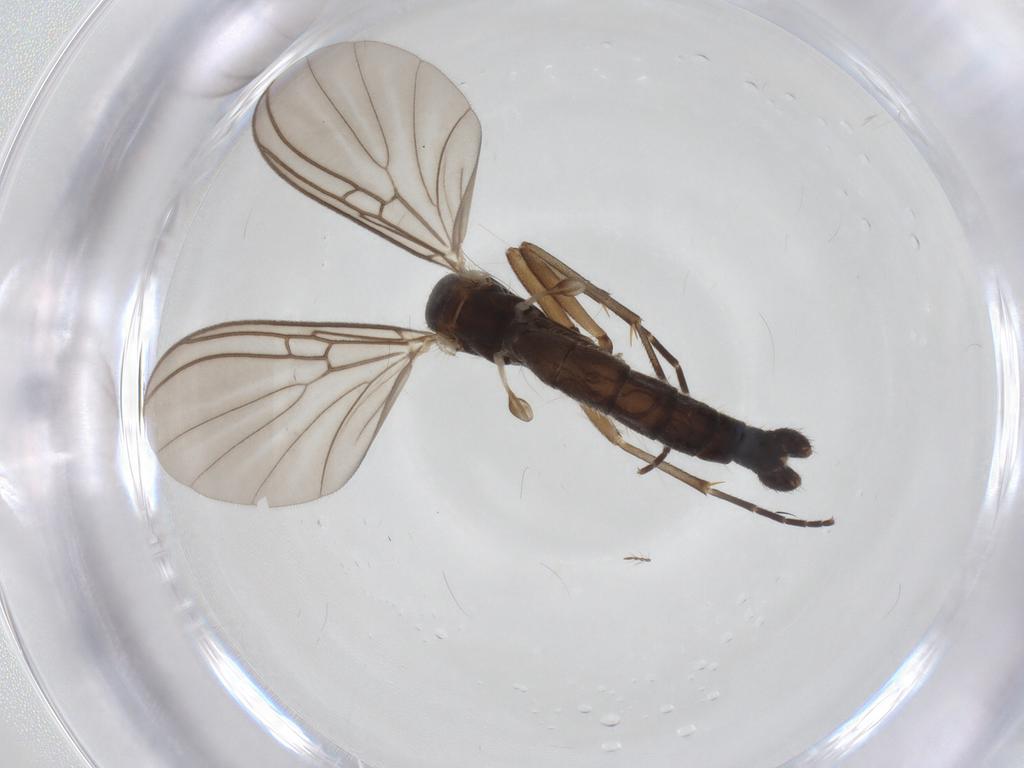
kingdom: Animalia
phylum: Arthropoda
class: Insecta
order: Diptera
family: Mycetophilidae
